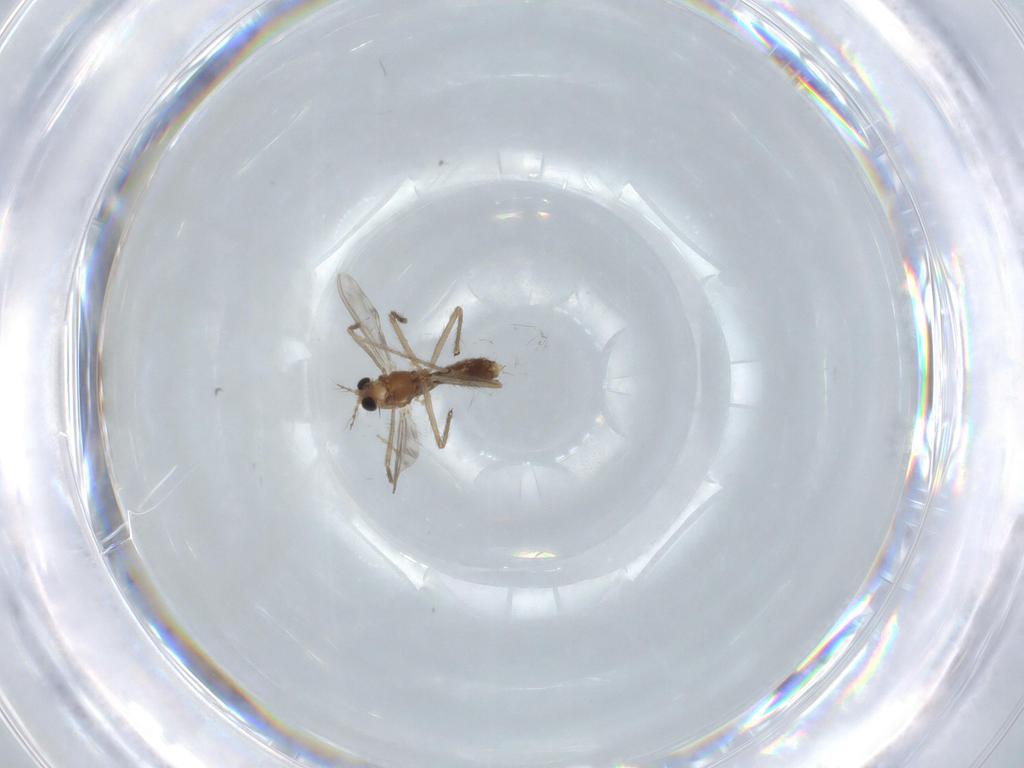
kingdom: Animalia
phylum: Arthropoda
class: Insecta
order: Diptera
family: Chironomidae
